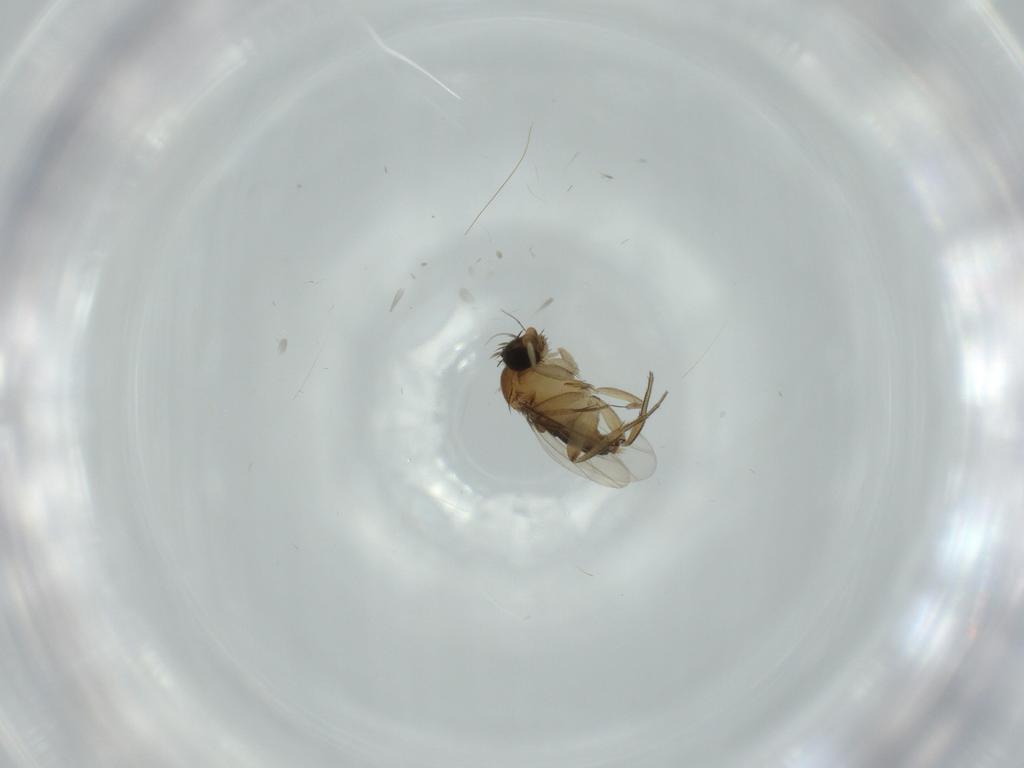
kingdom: Animalia
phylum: Arthropoda
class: Insecta
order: Diptera
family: Phoridae
